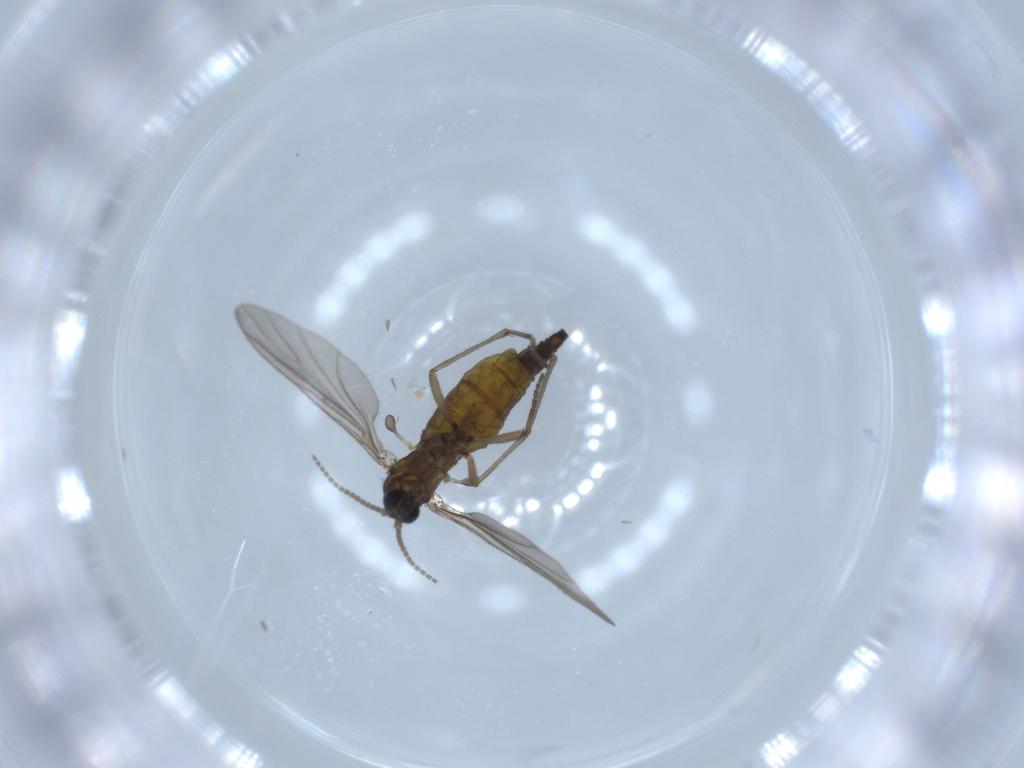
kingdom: Animalia
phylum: Arthropoda
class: Insecta
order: Diptera
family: Sciaridae
